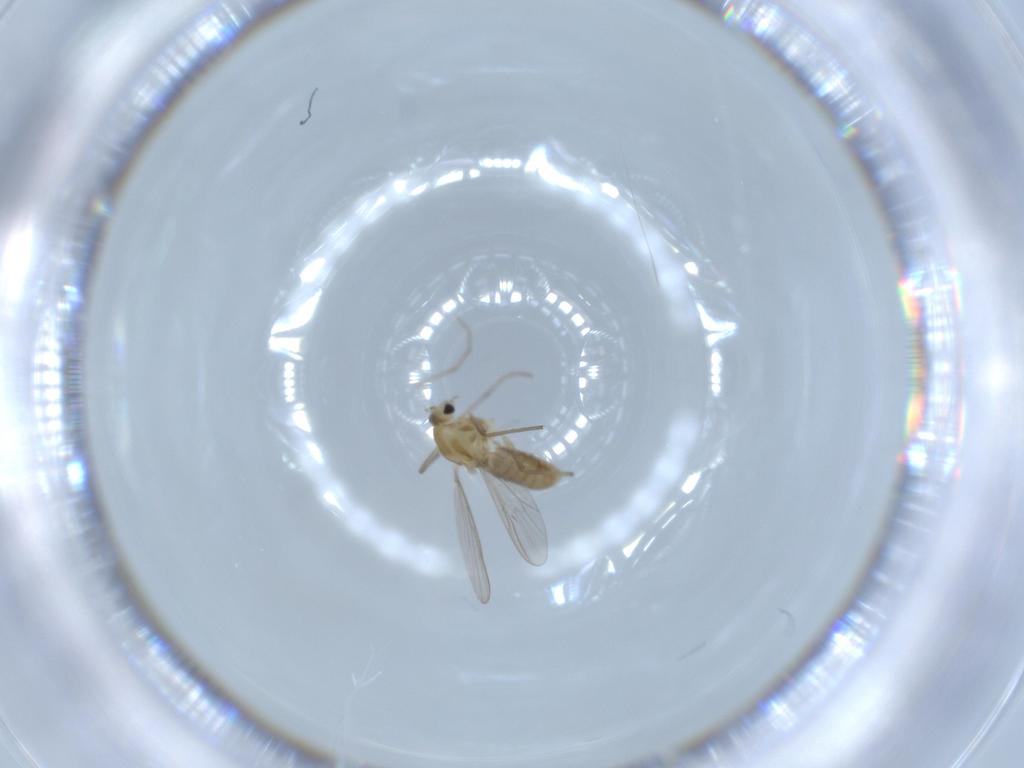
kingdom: Animalia
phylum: Arthropoda
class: Insecta
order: Diptera
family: Chironomidae
